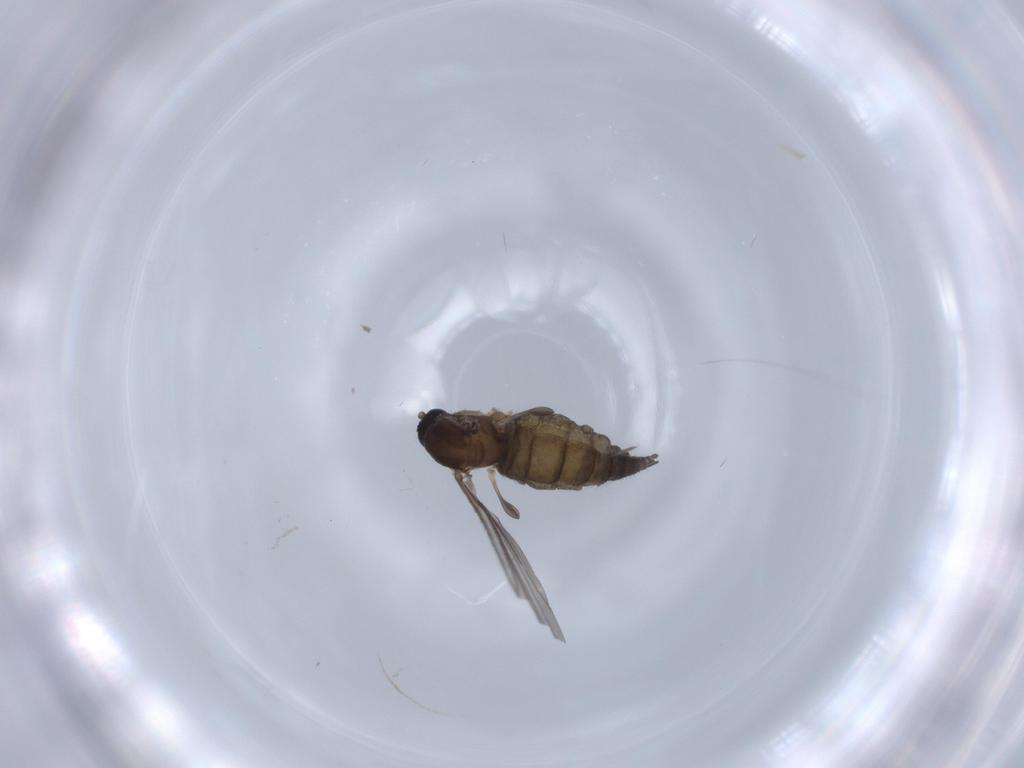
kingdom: Animalia
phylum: Arthropoda
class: Insecta
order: Diptera
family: Sciaridae
